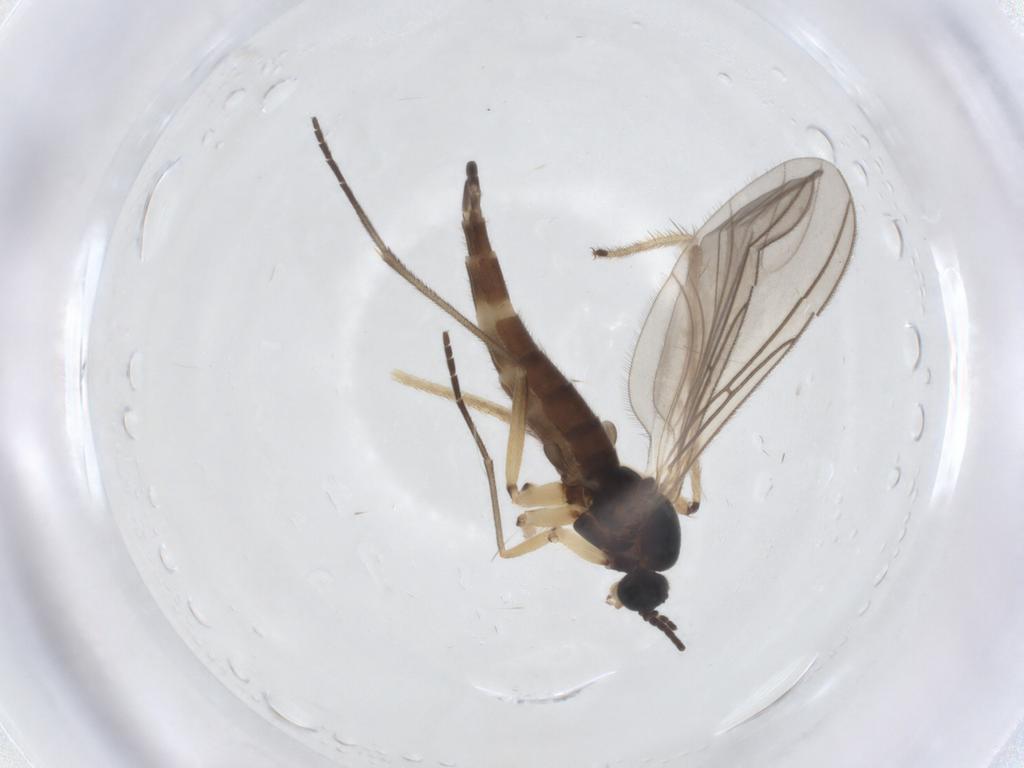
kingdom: Animalia
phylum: Arthropoda
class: Insecta
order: Diptera
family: Sciaridae
